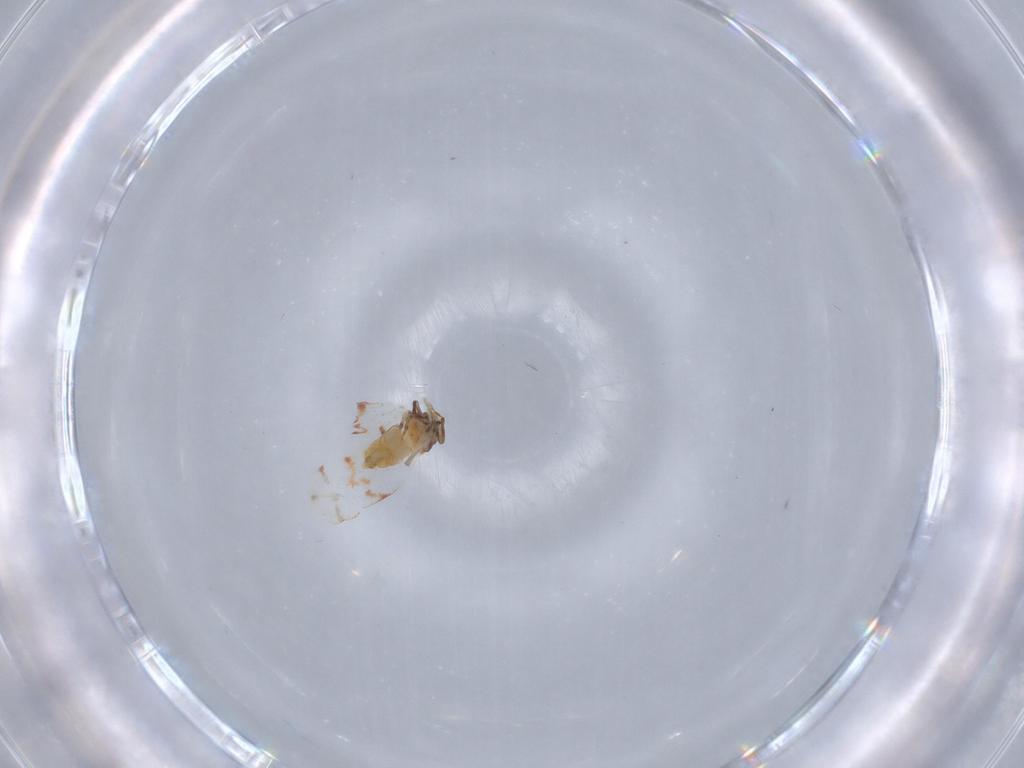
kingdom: Animalia
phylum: Arthropoda
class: Insecta
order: Hemiptera
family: Aleyrodidae
